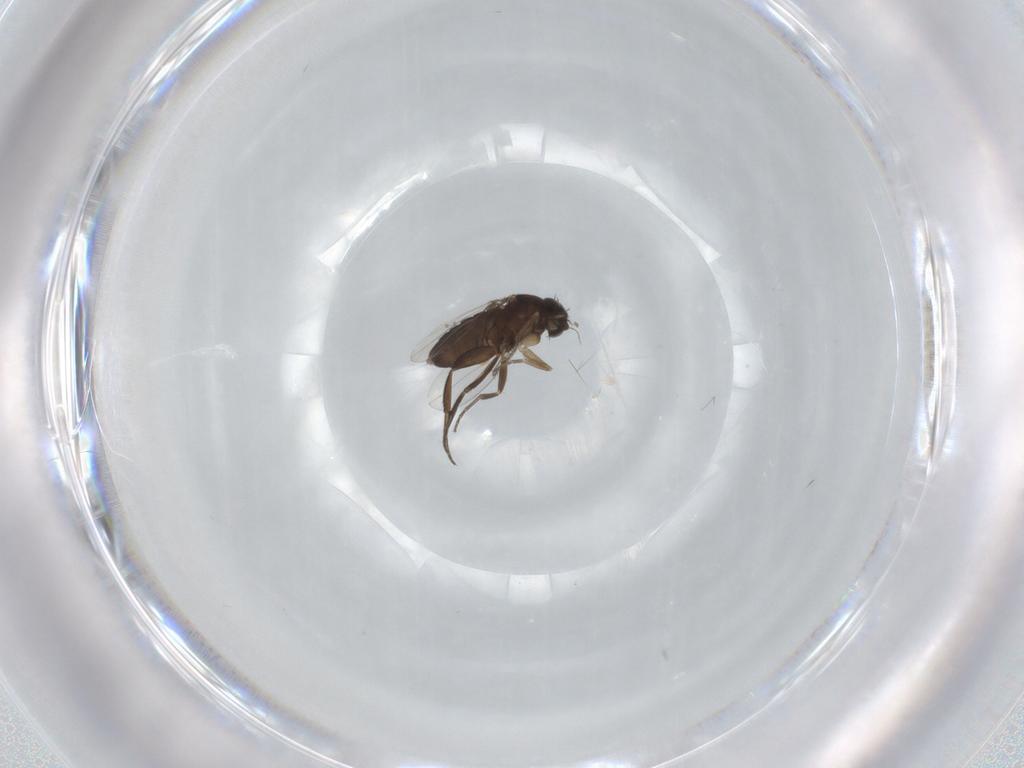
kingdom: Animalia
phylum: Arthropoda
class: Insecta
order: Diptera
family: Phoridae
